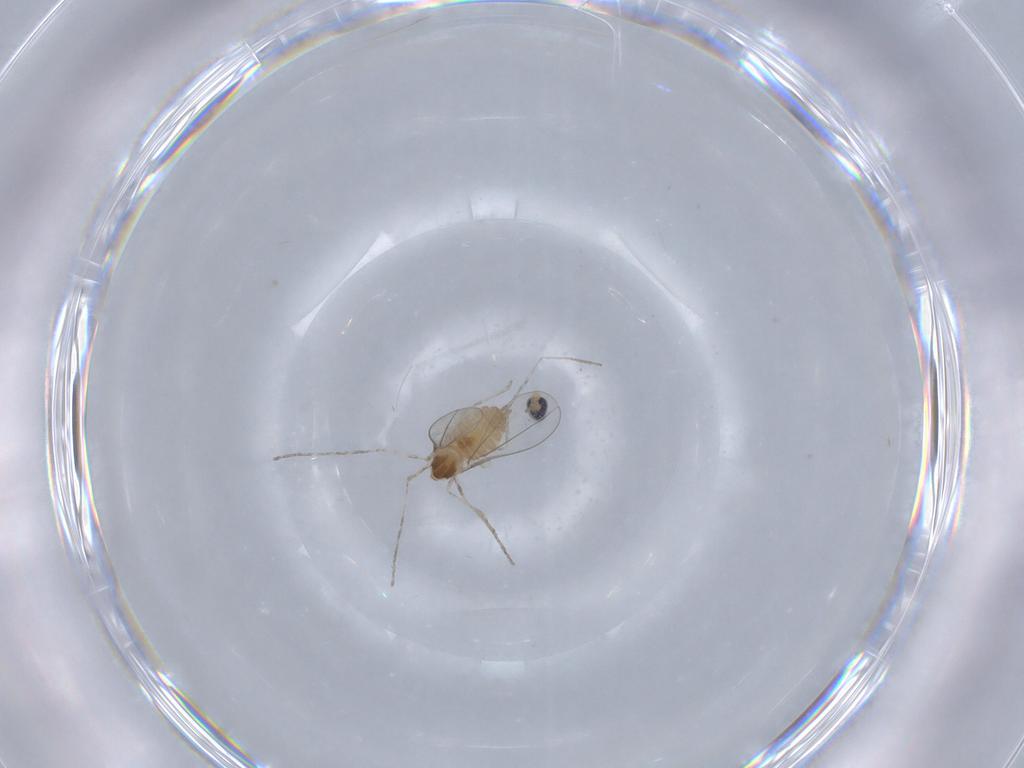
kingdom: Animalia
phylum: Arthropoda
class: Insecta
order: Diptera
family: Cecidomyiidae
